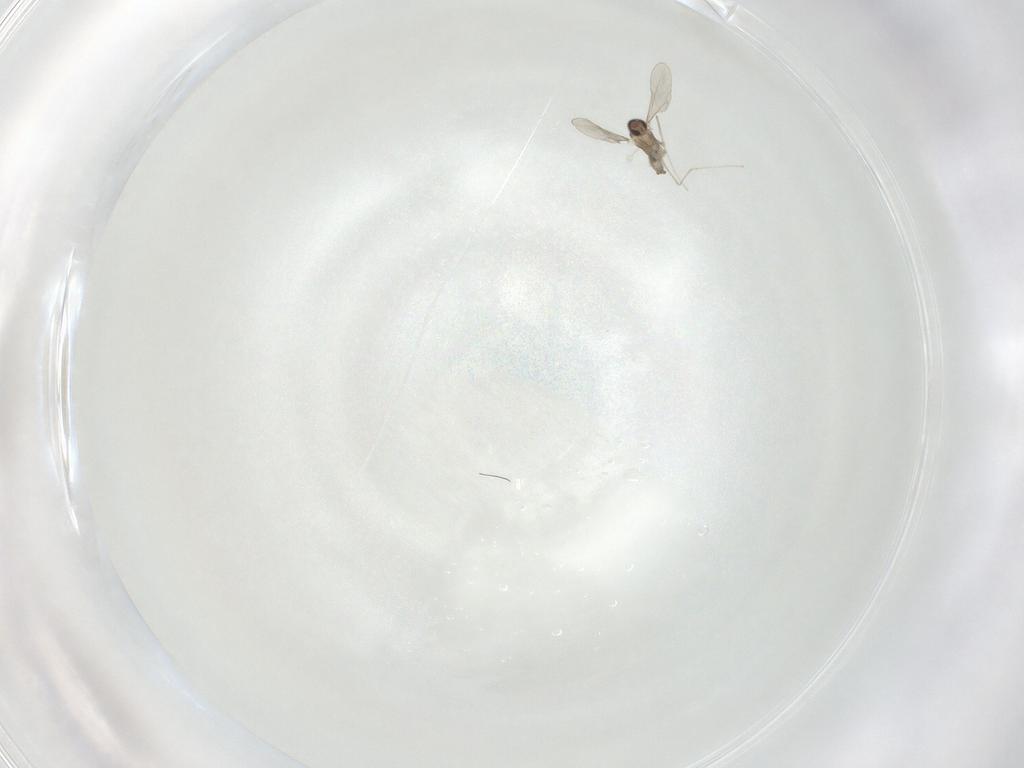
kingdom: Animalia
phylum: Arthropoda
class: Insecta
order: Diptera
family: Cecidomyiidae
